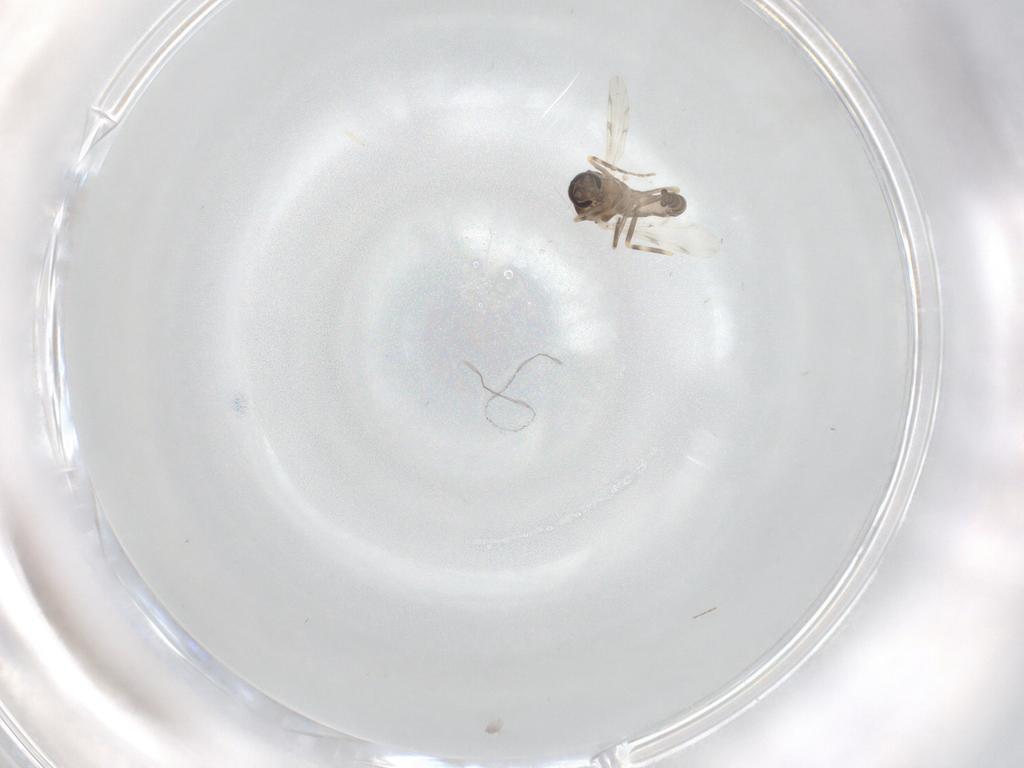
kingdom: Animalia
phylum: Arthropoda
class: Insecta
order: Diptera
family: Ceratopogonidae
